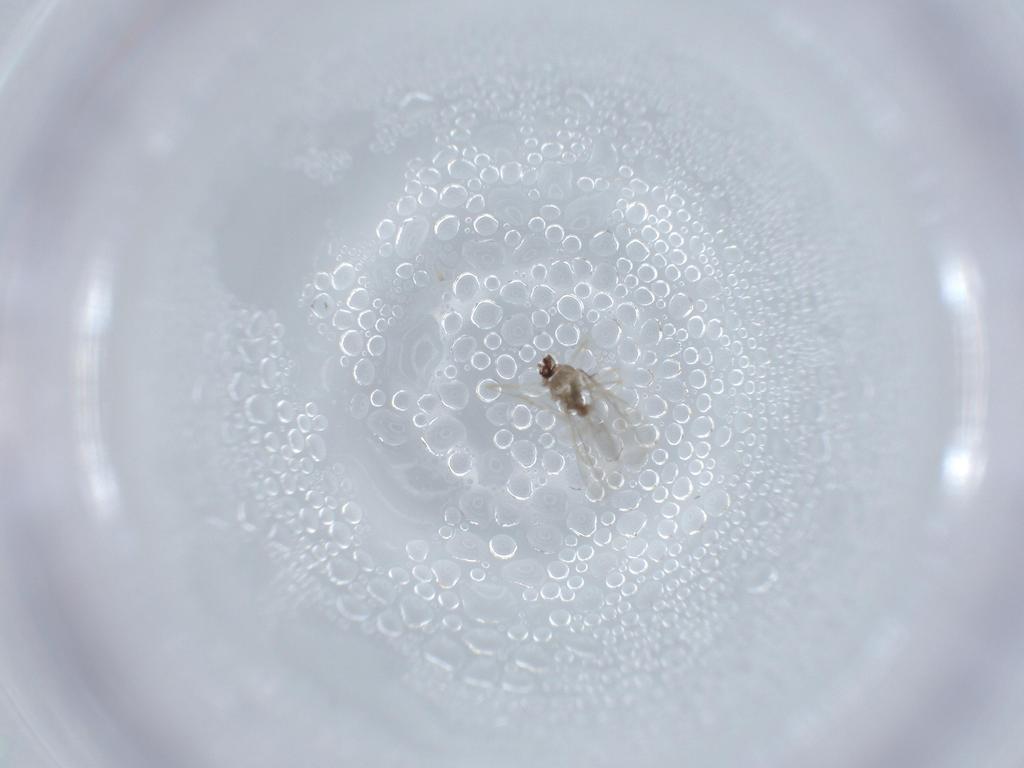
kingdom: Animalia
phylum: Arthropoda
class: Insecta
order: Diptera
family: Cecidomyiidae
